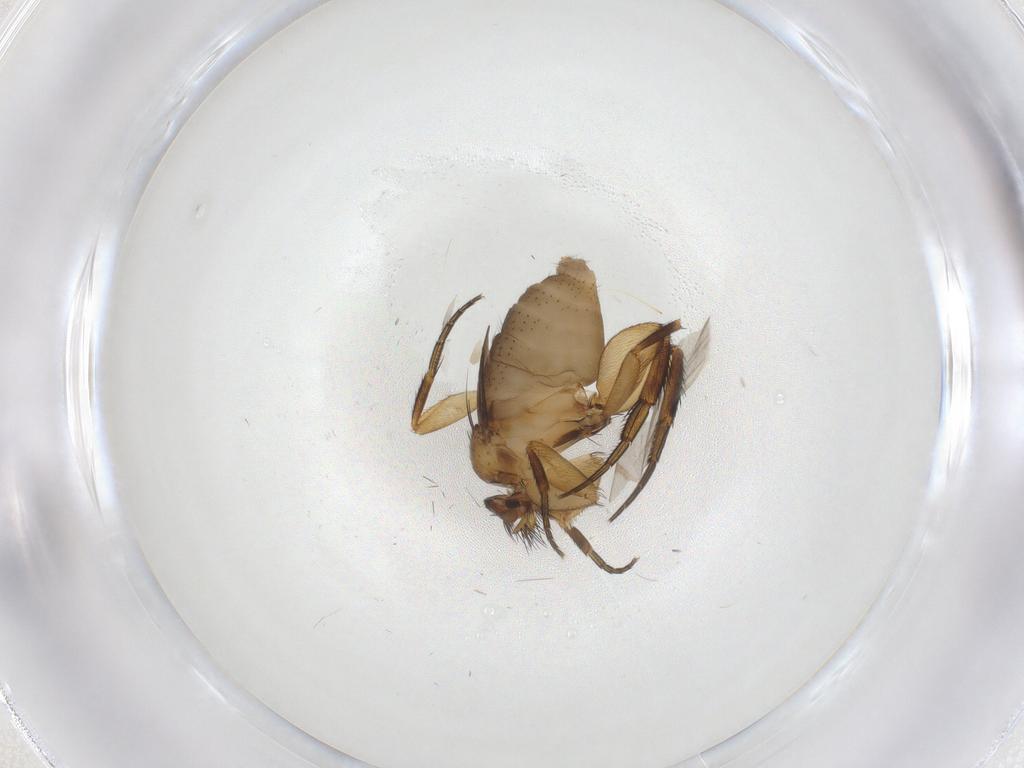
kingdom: Animalia
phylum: Arthropoda
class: Insecta
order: Diptera
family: Phoridae
